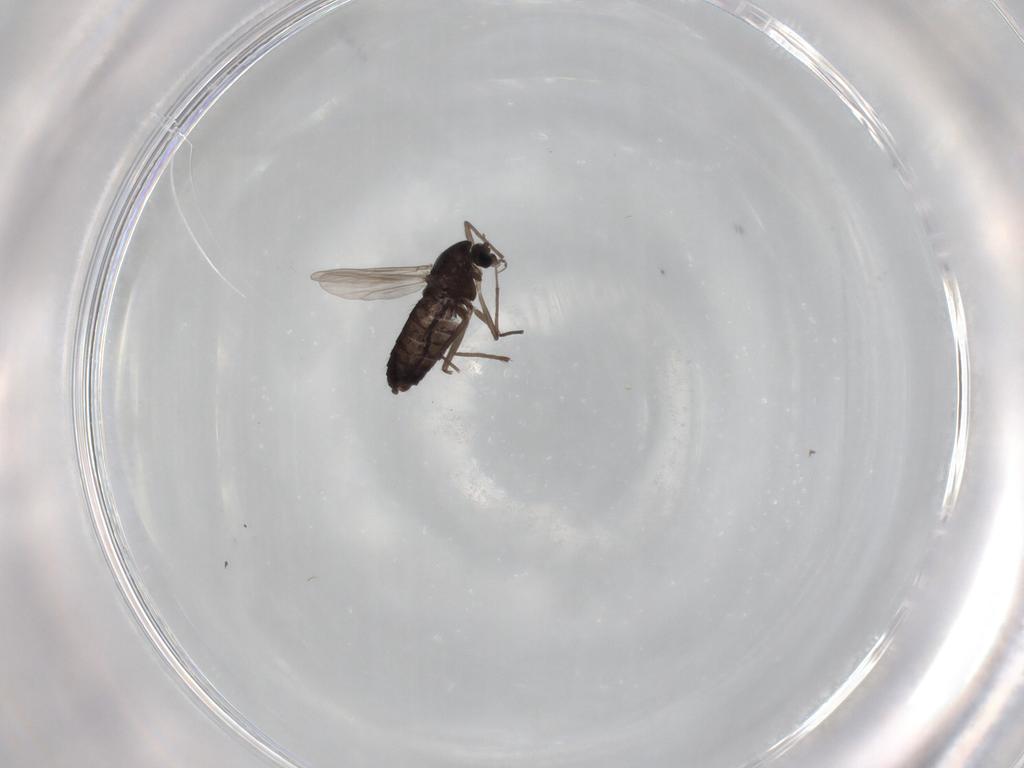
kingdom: Animalia
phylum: Arthropoda
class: Insecta
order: Diptera
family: Chironomidae
